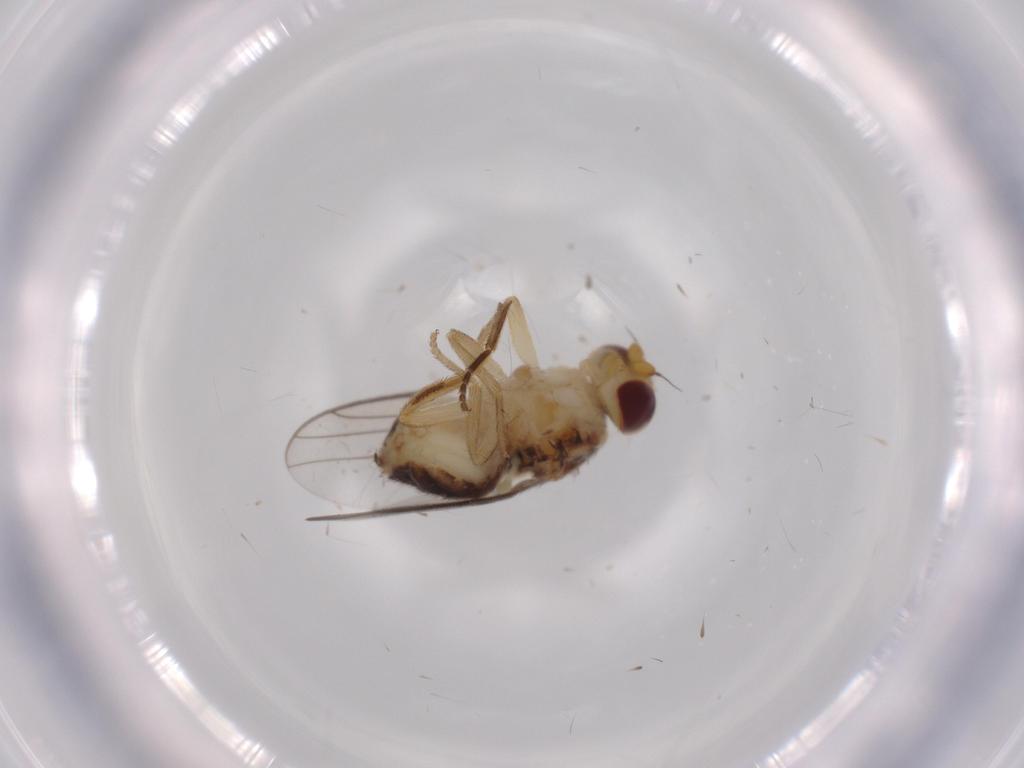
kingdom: Animalia
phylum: Arthropoda
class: Insecta
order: Diptera
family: Chloropidae
